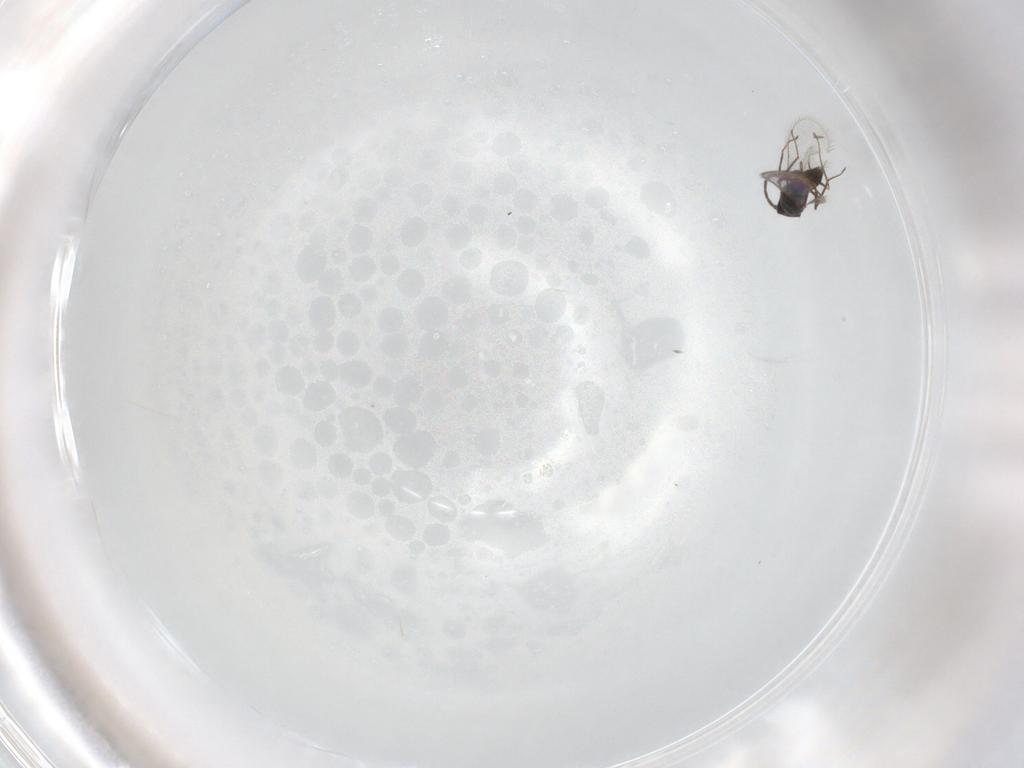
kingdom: Animalia
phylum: Arthropoda
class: Insecta
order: Hymenoptera
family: Mymaridae
